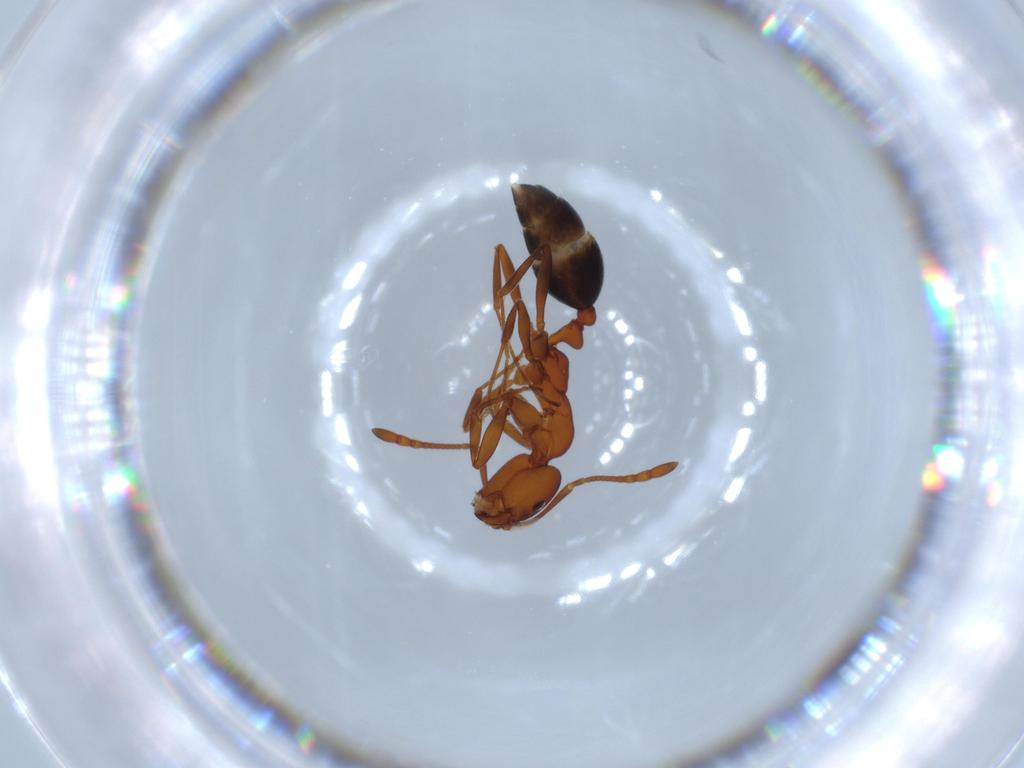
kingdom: Animalia
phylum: Arthropoda
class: Insecta
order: Hymenoptera
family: Formicidae
